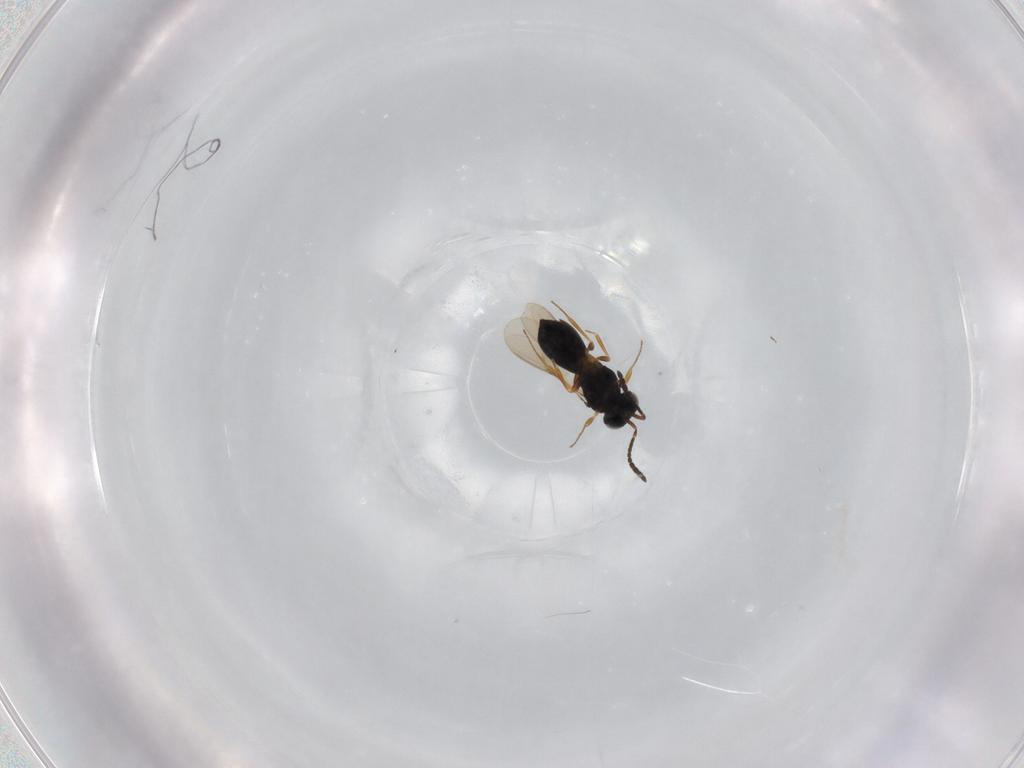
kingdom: Animalia
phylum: Arthropoda
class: Insecta
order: Hymenoptera
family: Scelionidae
